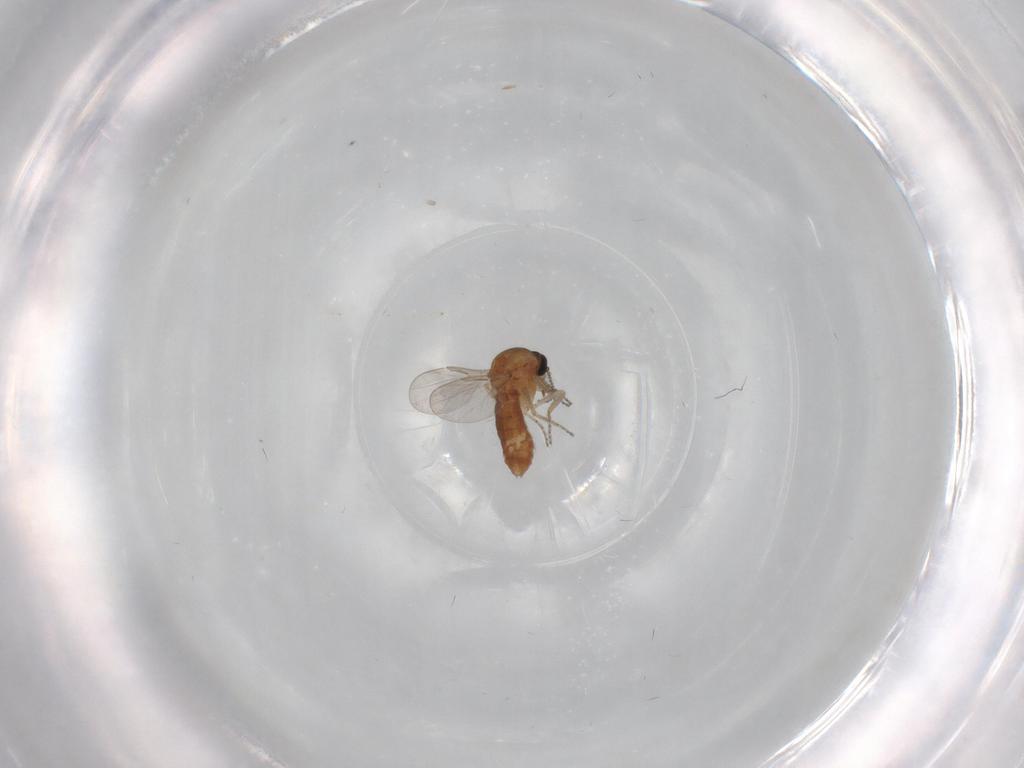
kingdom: Animalia
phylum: Arthropoda
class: Insecta
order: Diptera
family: Ceratopogonidae
